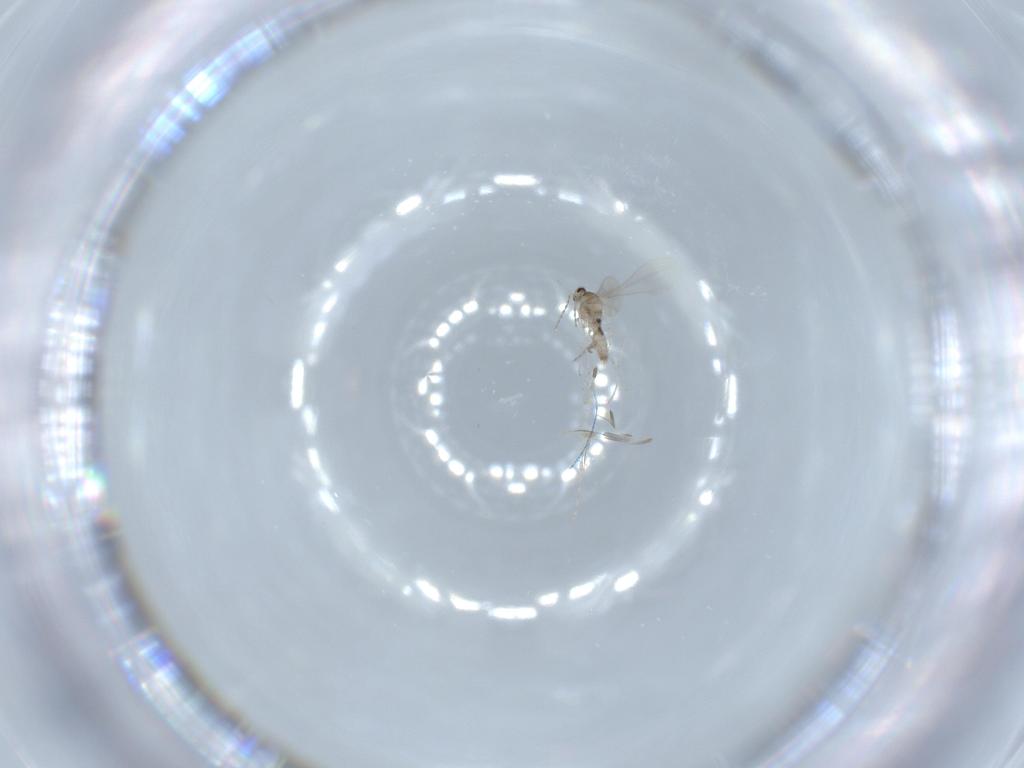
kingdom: Animalia
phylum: Arthropoda
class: Insecta
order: Diptera
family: Cecidomyiidae
